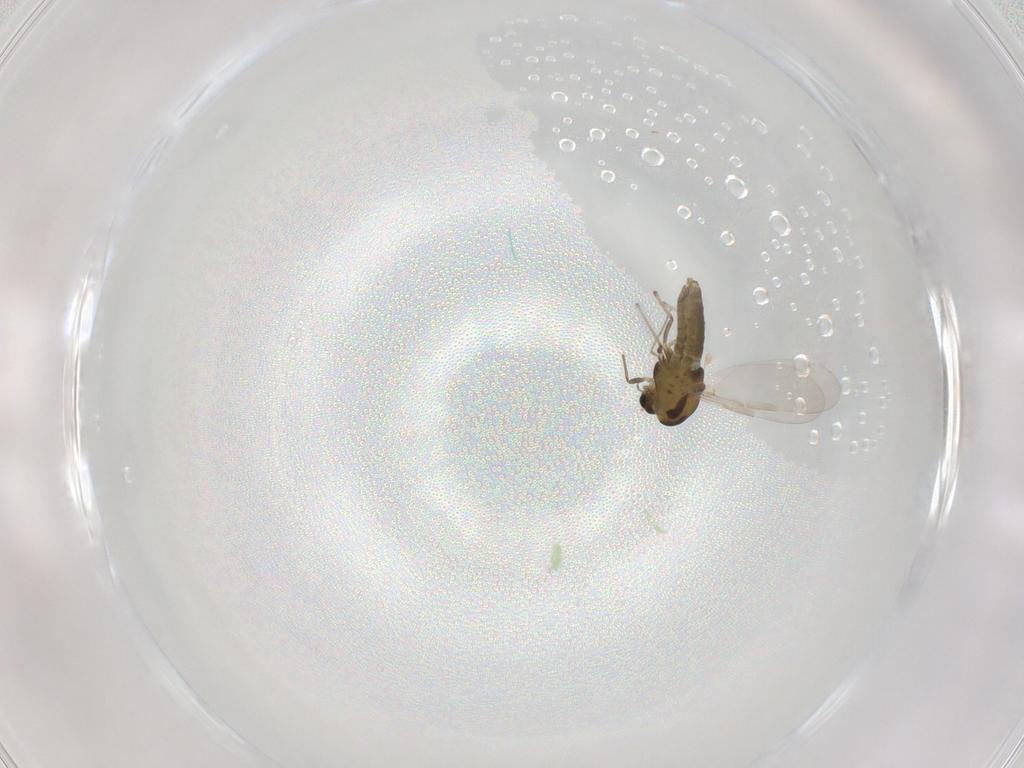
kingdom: Animalia
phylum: Arthropoda
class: Insecta
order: Diptera
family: Chironomidae
